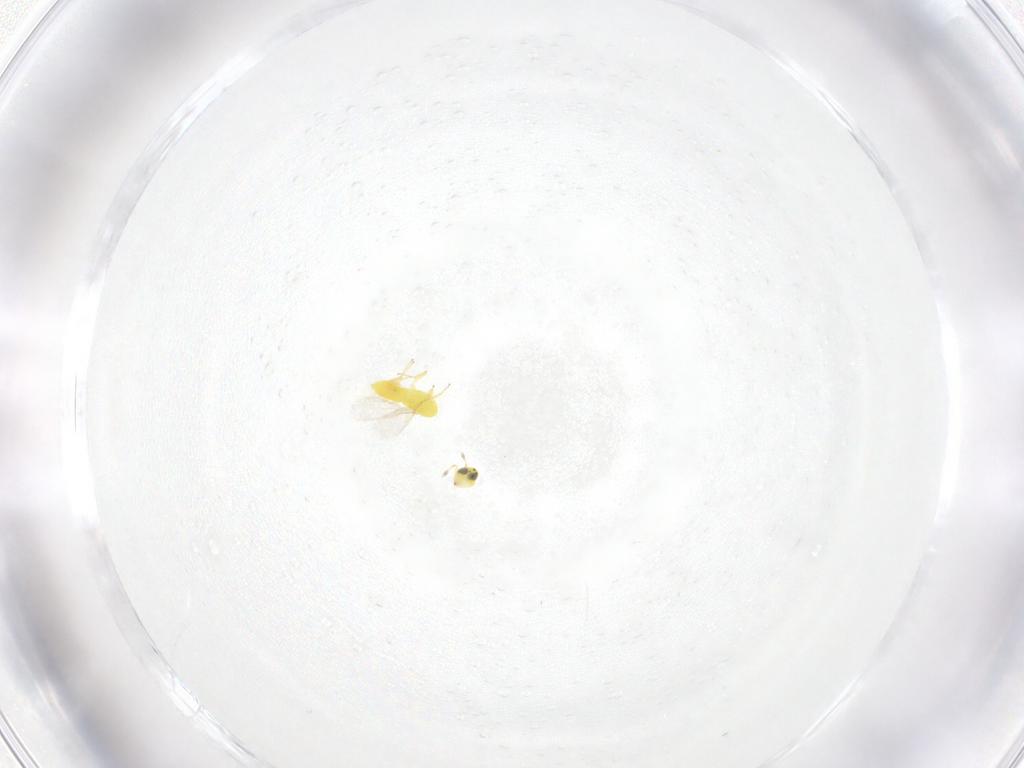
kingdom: Animalia
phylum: Arthropoda
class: Insecta
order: Hymenoptera
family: Aphelinidae
